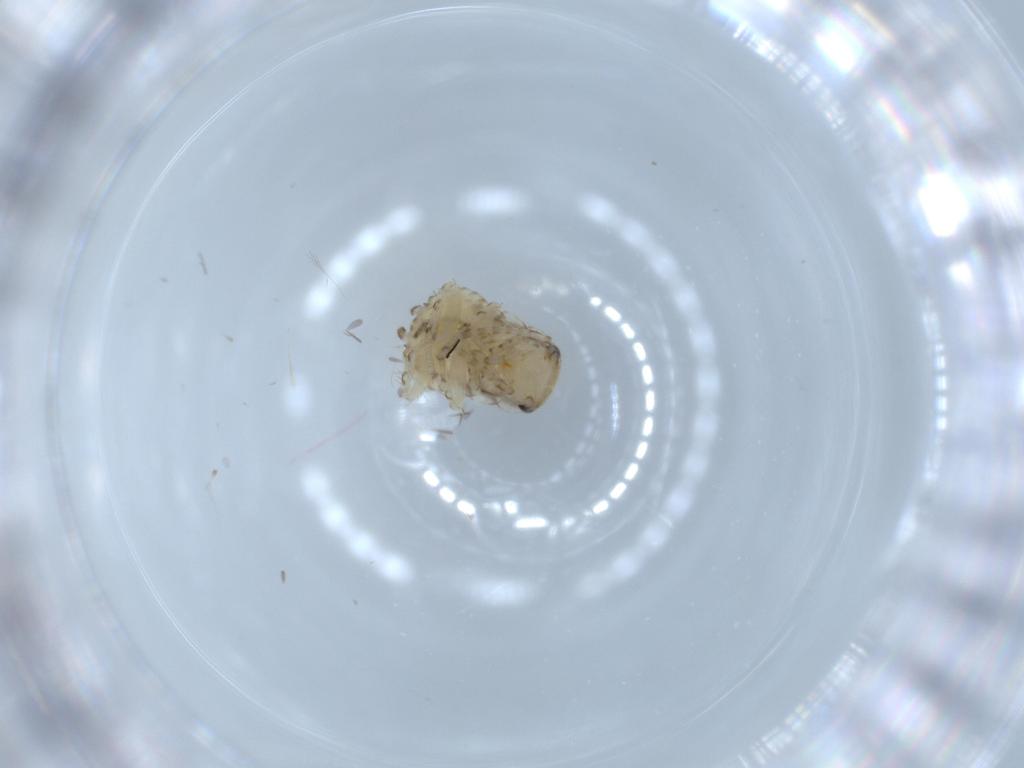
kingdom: Animalia
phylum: Arthropoda
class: Insecta
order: Blattodea
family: Ectobiidae
